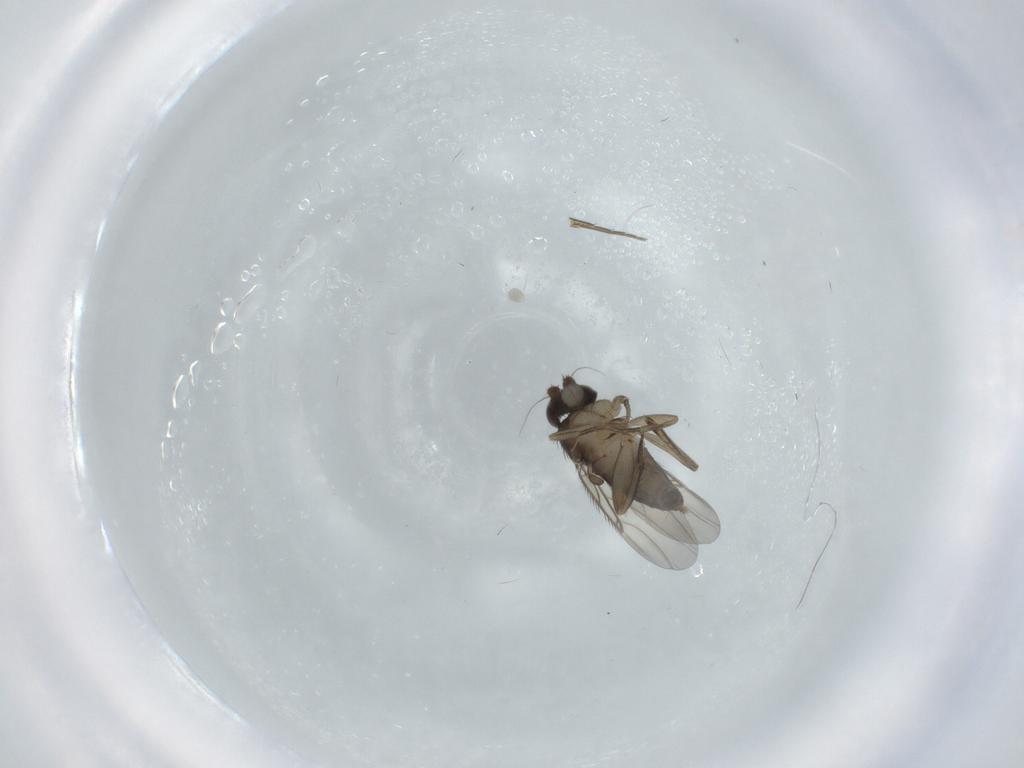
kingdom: Animalia
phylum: Arthropoda
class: Insecta
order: Diptera
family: Phoridae
